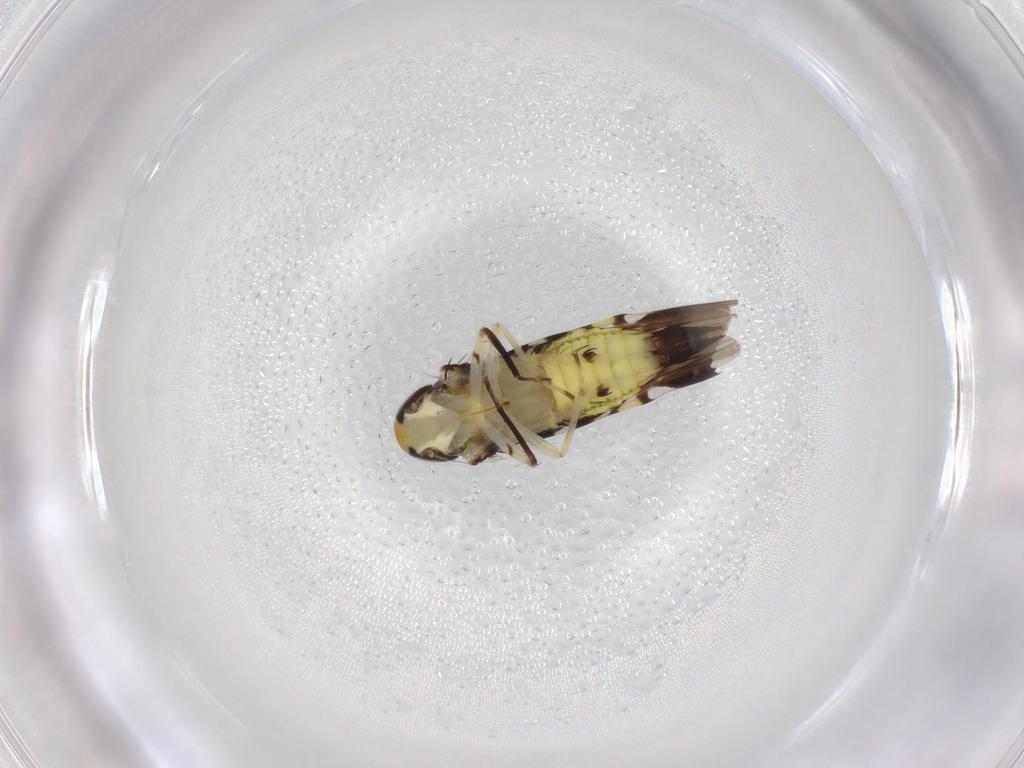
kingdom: Animalia
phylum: Arthropoda
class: Insecta
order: Hemiptera
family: Cicadellidae
